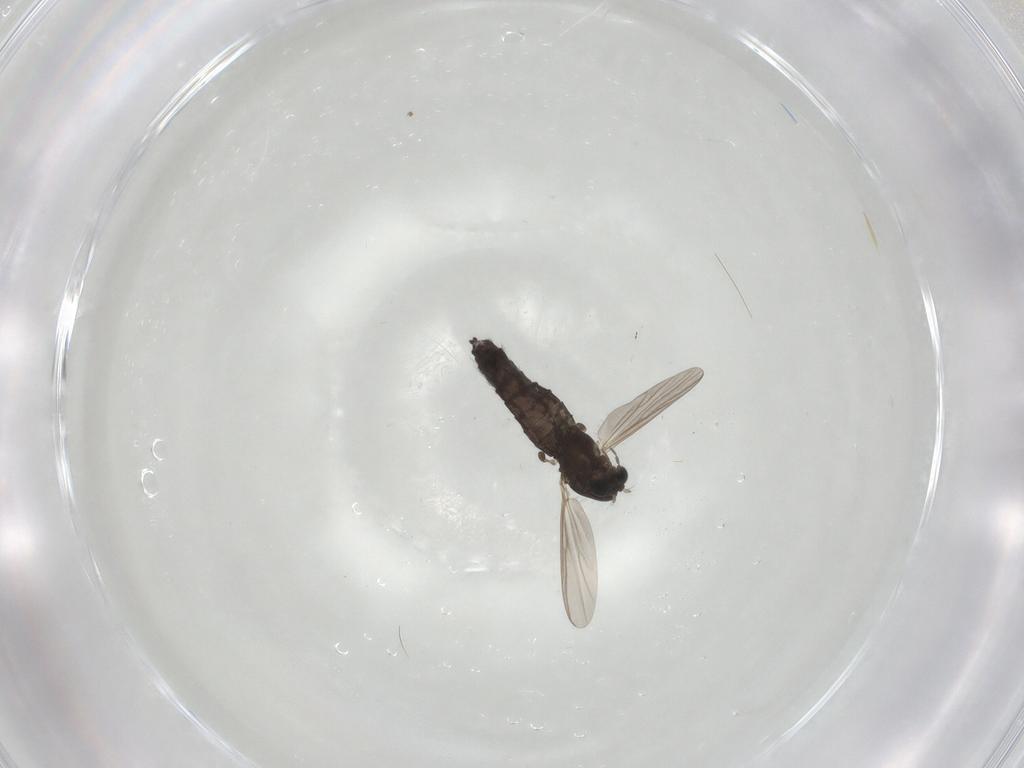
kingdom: Animalia
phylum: Arthropoda
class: Insecta
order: Diptera
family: Chironomidae
